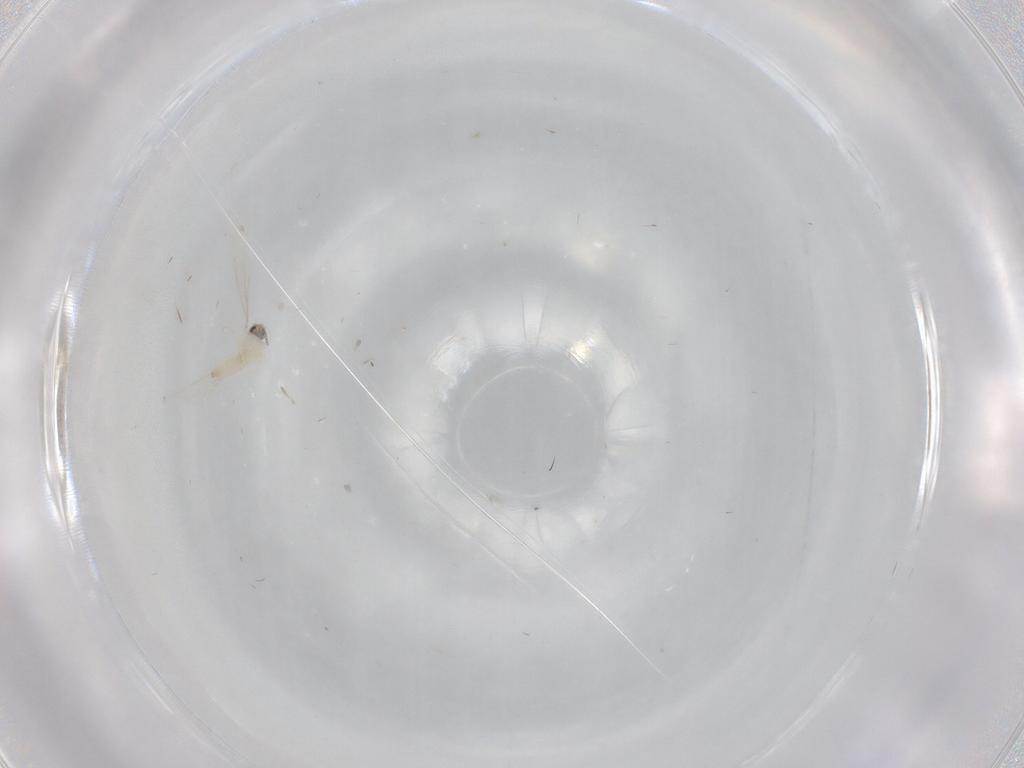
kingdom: Animalia
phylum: Arthropoda
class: Insecta
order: Diptera
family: Cecidomyiidae
